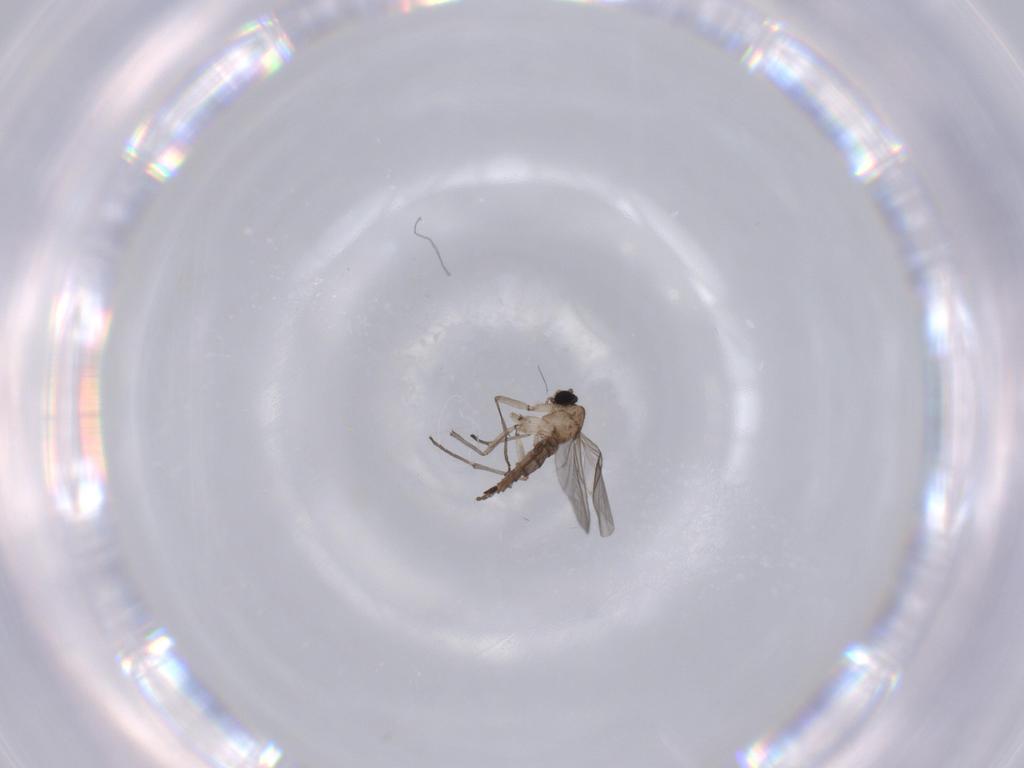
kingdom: Animalia
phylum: Arthropoda
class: Insecta
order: Diptera
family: Sciaridae
